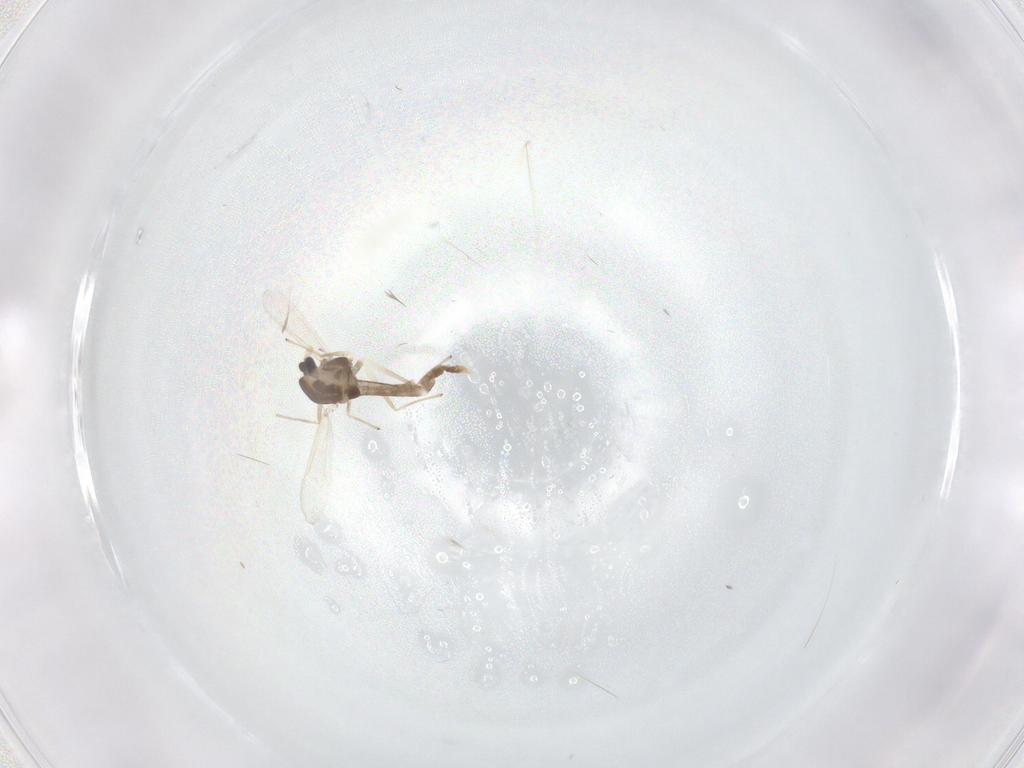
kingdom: Animalia
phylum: Arthropoda
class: Insecta
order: Diptera
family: Chironomidae
